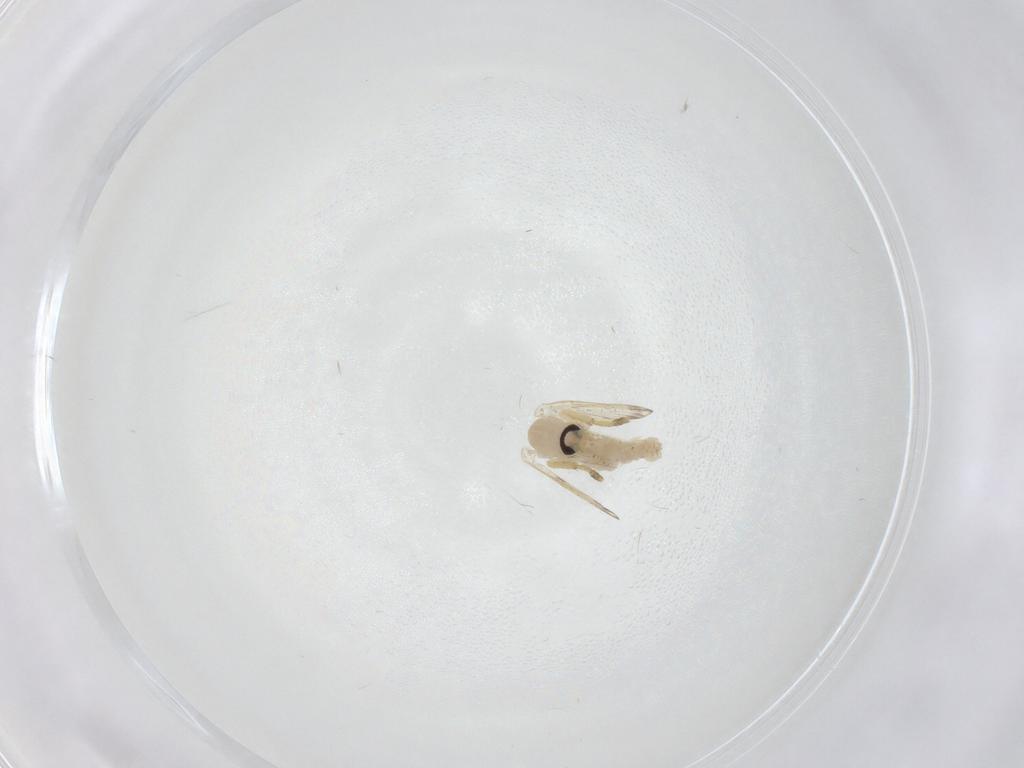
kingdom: Animalia
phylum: Arthropoda
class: Insecta
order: Diptera
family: Psychodidae
